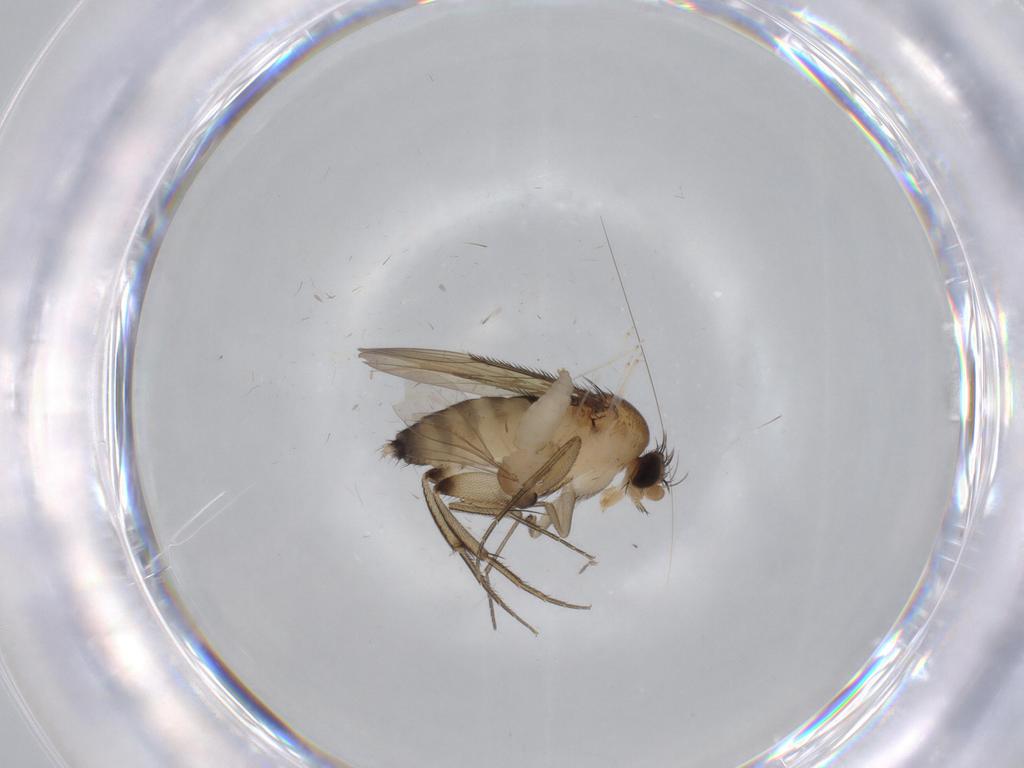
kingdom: Animalia
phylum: Arthropoda
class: Insecta
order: Diptera
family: Phoridae
